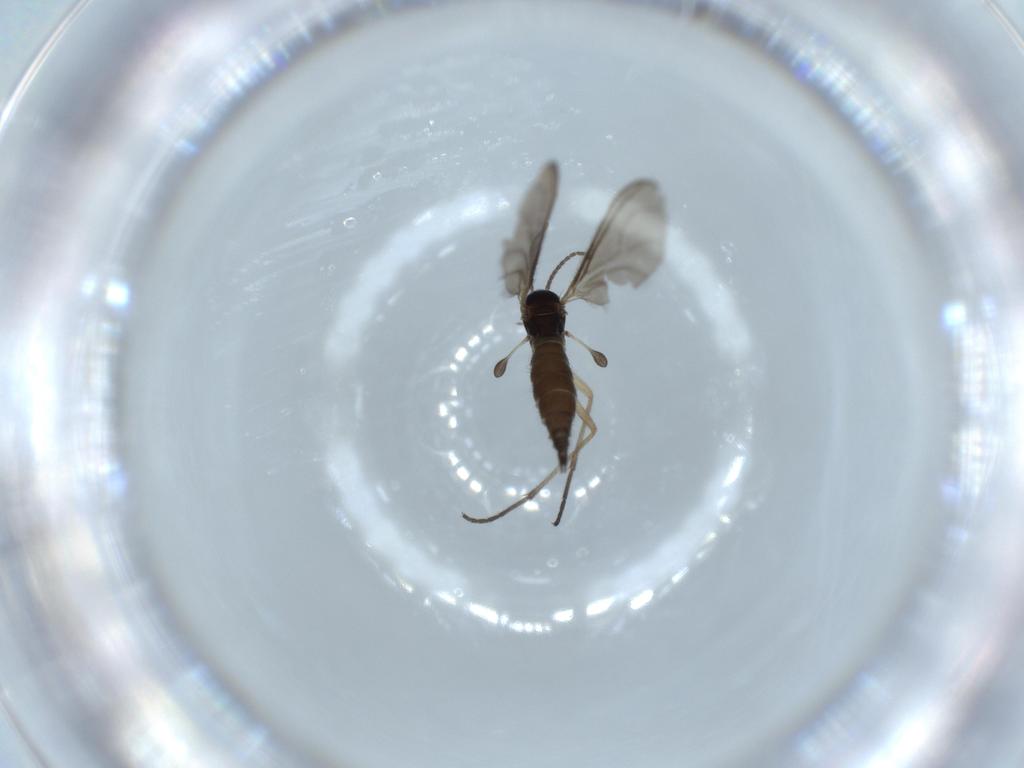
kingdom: Animalia
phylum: Arthropoda
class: Insecta
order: Diptera
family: Sciaridae
